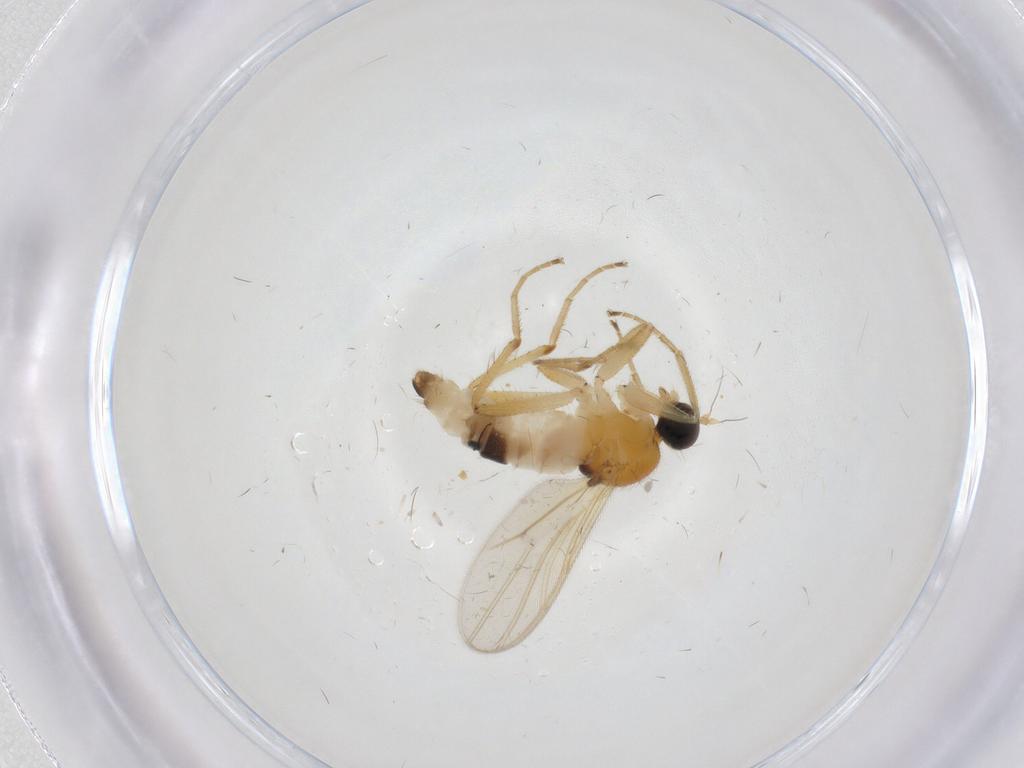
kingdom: Animalia
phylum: Arthropoda
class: Insecta
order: Diptera
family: Hybotidae
